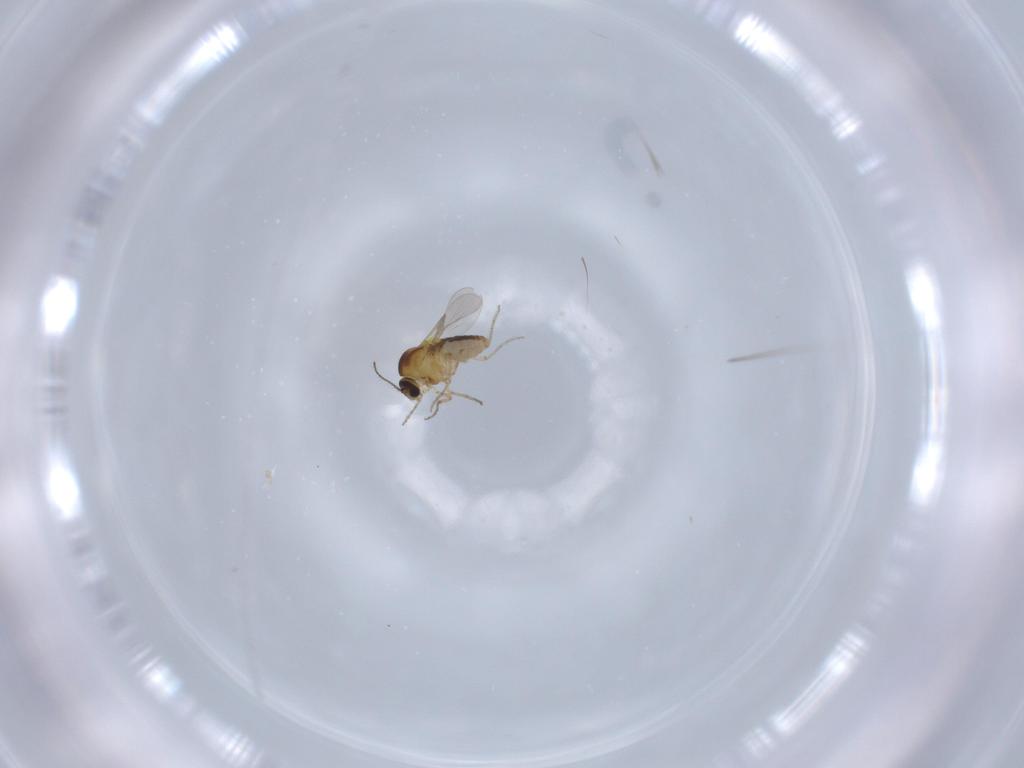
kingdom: Animalia
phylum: Arthropoda
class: Insecta
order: Diptera
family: Ceratopogonidae
